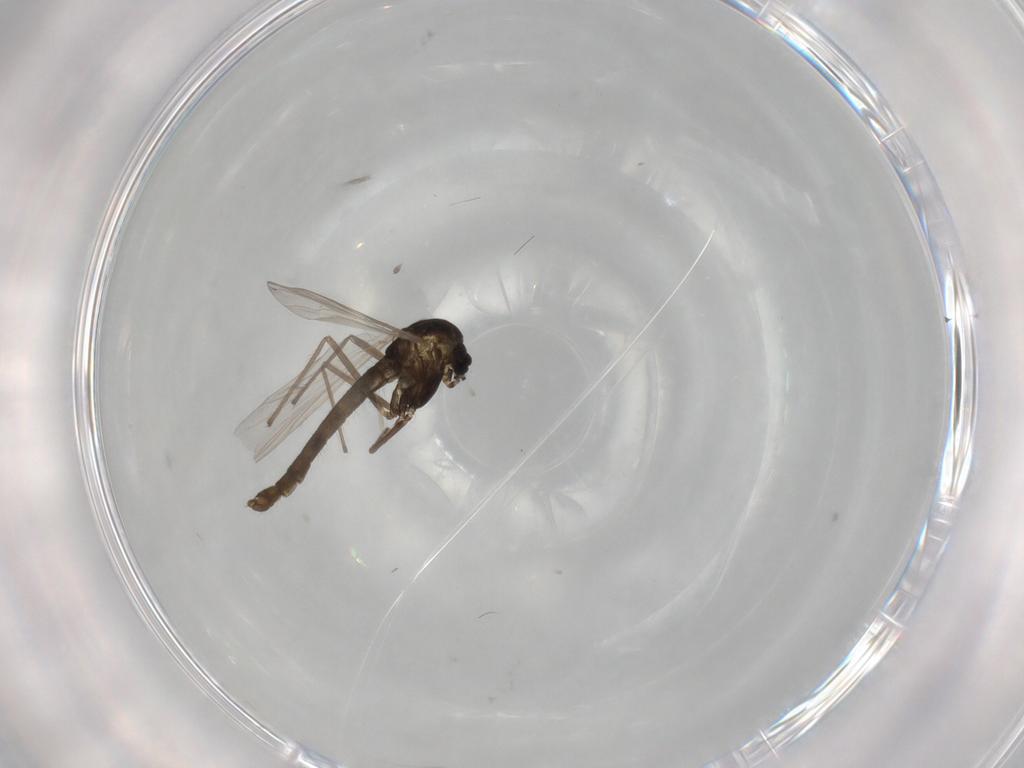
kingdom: Animalia
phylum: Arthropoda
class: Insecta
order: Diptera
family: Chironomidae
